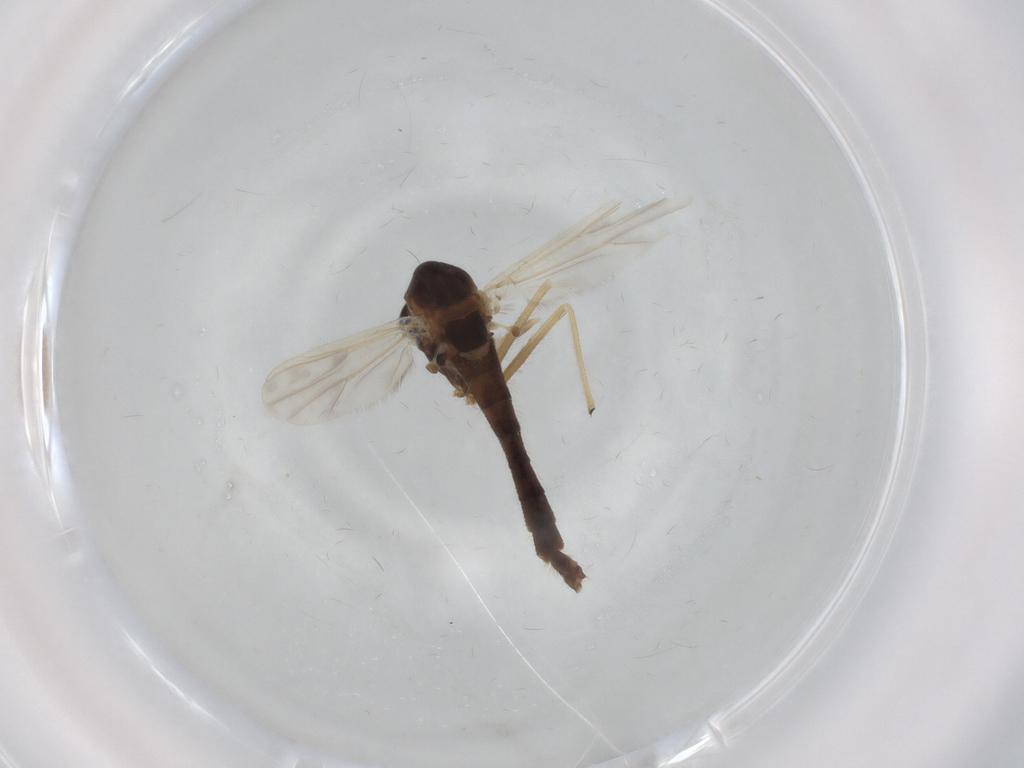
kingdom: Animalia
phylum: Arthropoda
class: Insecta
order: Diptera
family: Chironomidae
